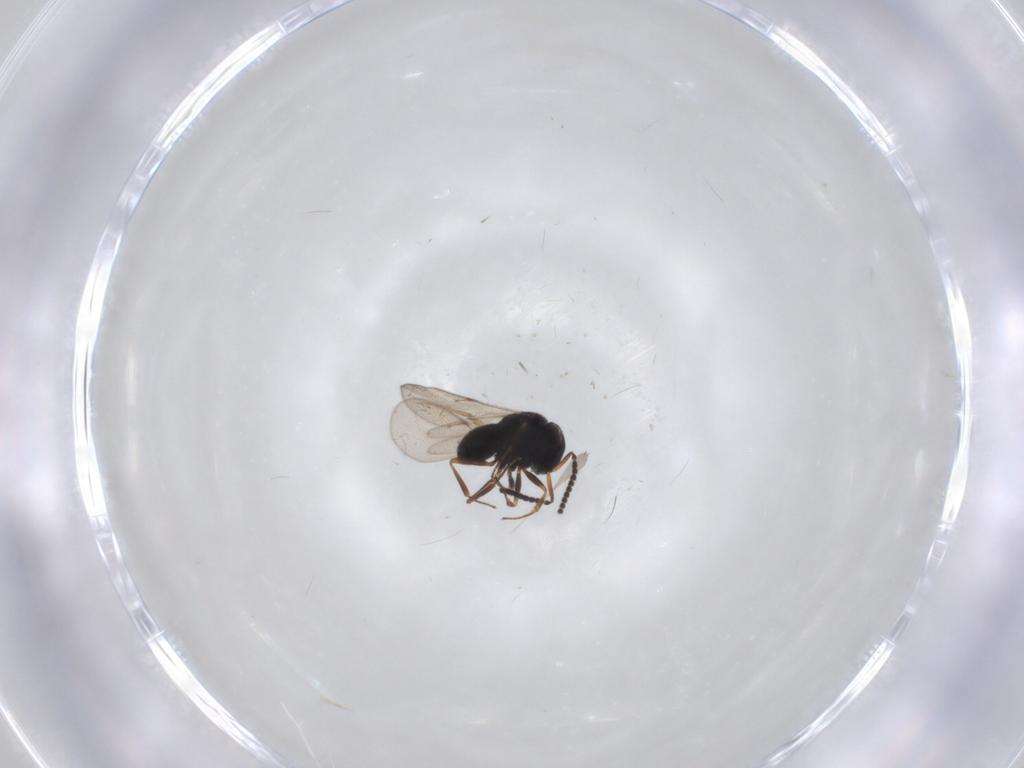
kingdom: Animalia
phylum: Arthropoda
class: Insecta
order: Hymenoptera
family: Scelionidae
